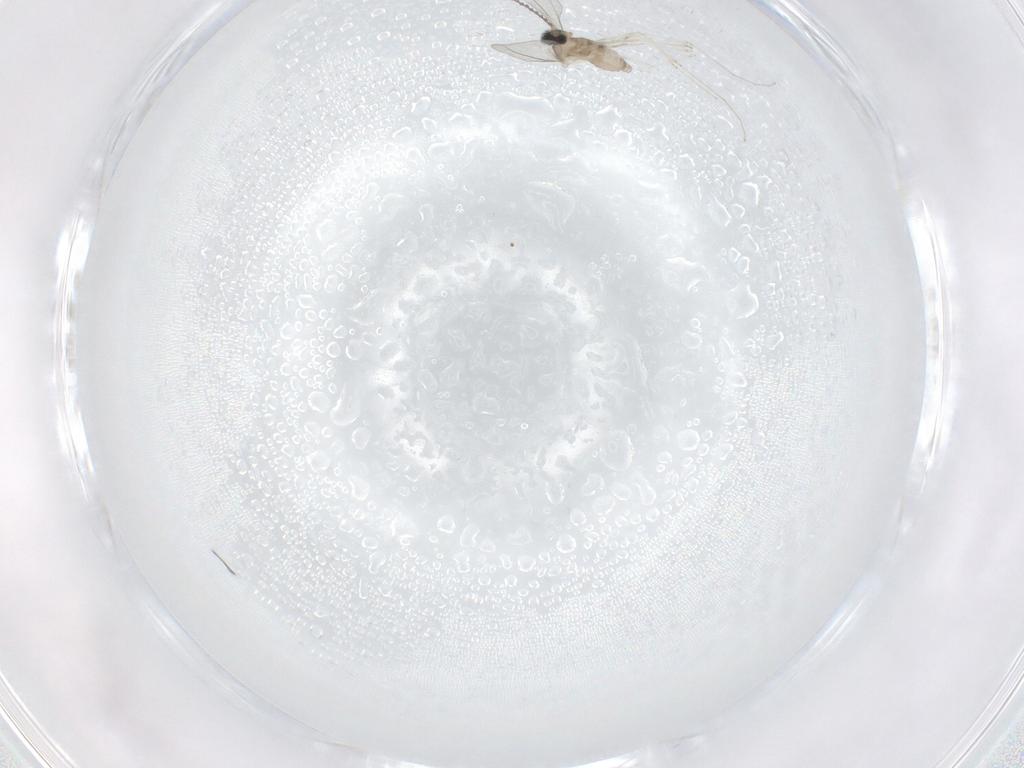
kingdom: Animalia
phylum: Arthropoda
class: Insecta
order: Diptera
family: Cecidomyiidae
